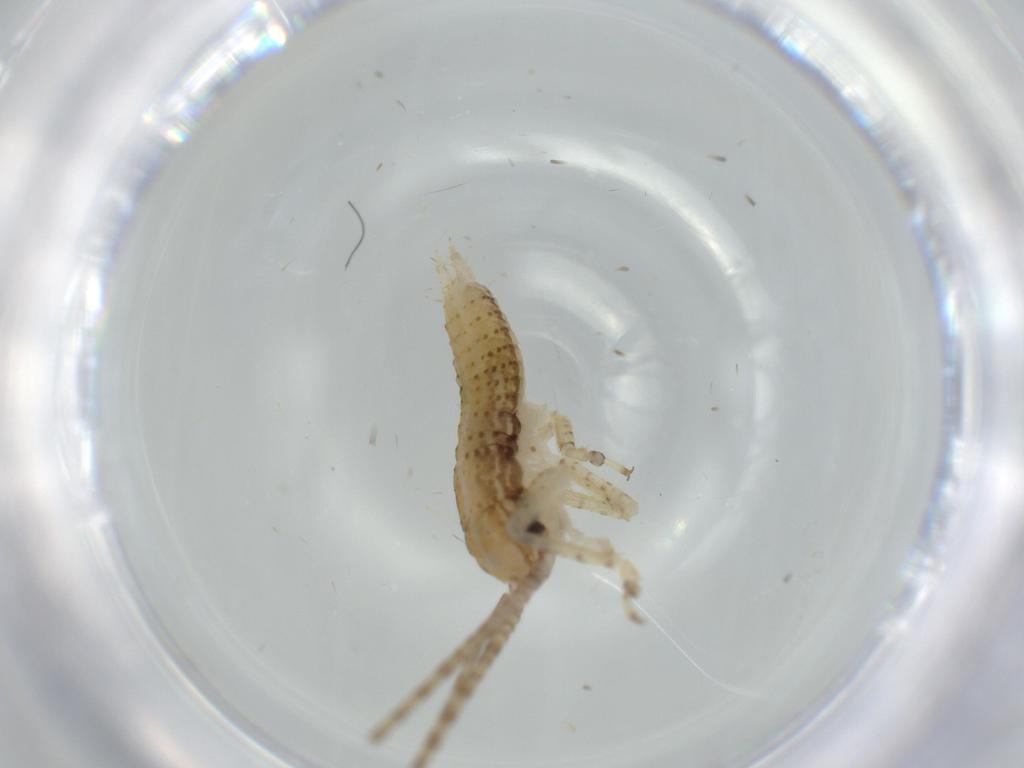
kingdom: Animalia
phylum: Arthropoda
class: Insecta
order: Orthoptera
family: Gryllidae
